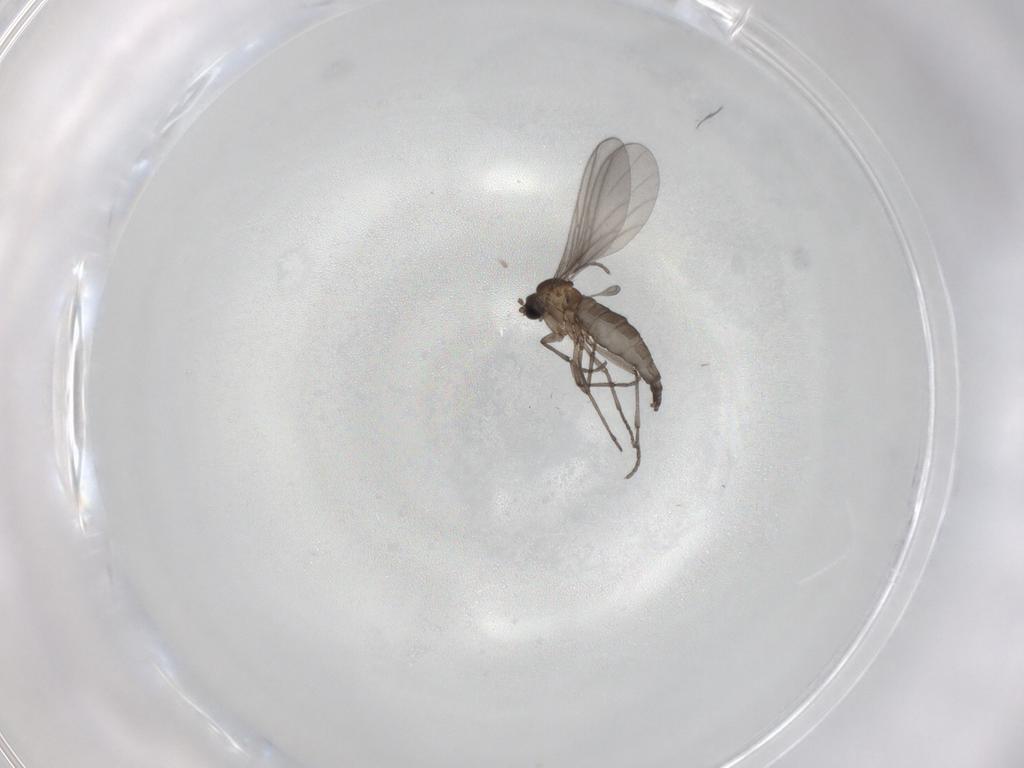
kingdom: Animalia
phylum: Arthropoda
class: Insecta
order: Diptera
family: Sciaridae
